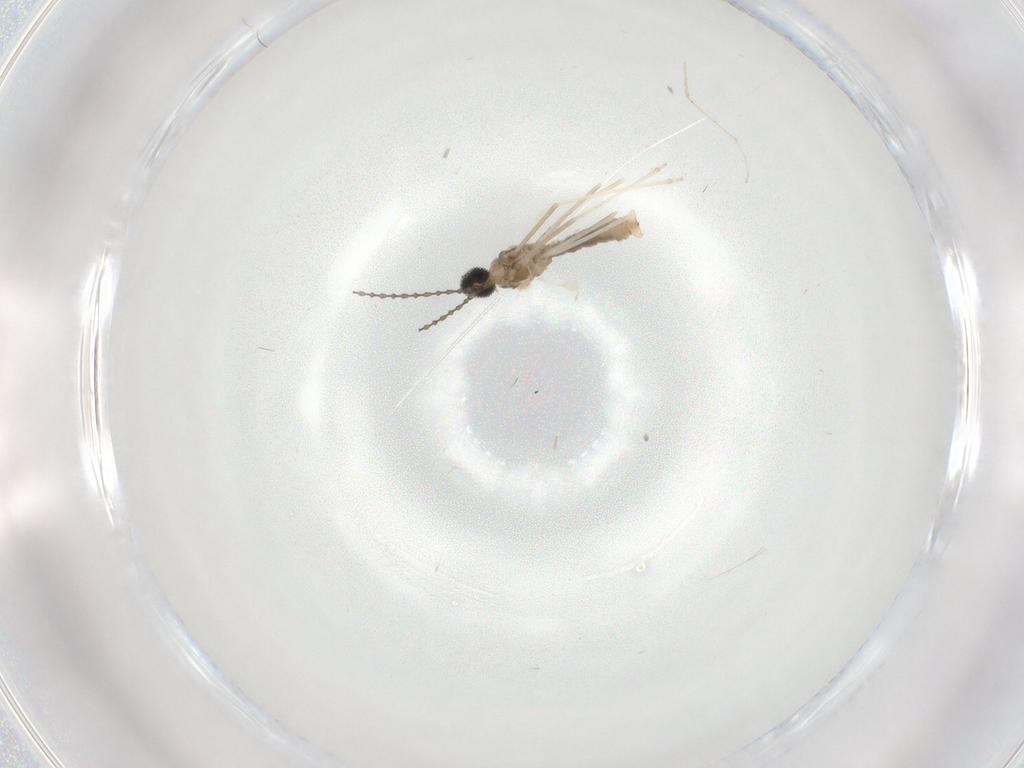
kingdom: Animalia
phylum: Arthropoda
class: Insecta
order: Diptera
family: Cecidomyiidae
